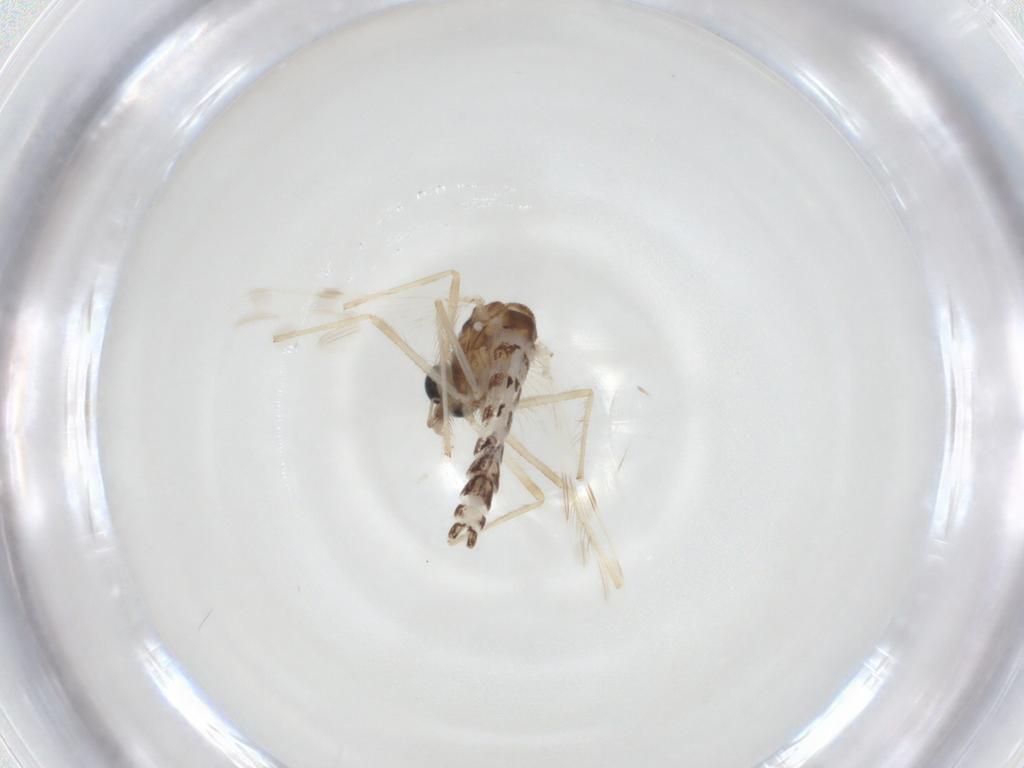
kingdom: Animalia
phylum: Arthropoda
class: Insecta
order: Diptera
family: Chironomidae
